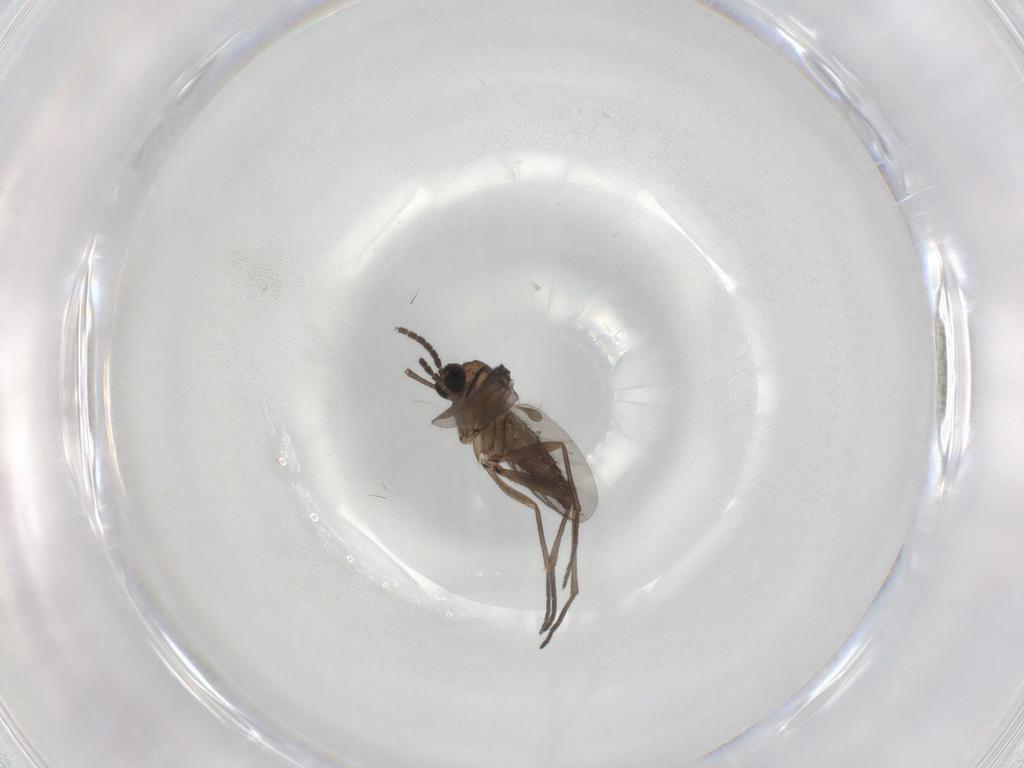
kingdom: Animalia
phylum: Arthropoda
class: Insecta
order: Diptera
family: Sciaridae
